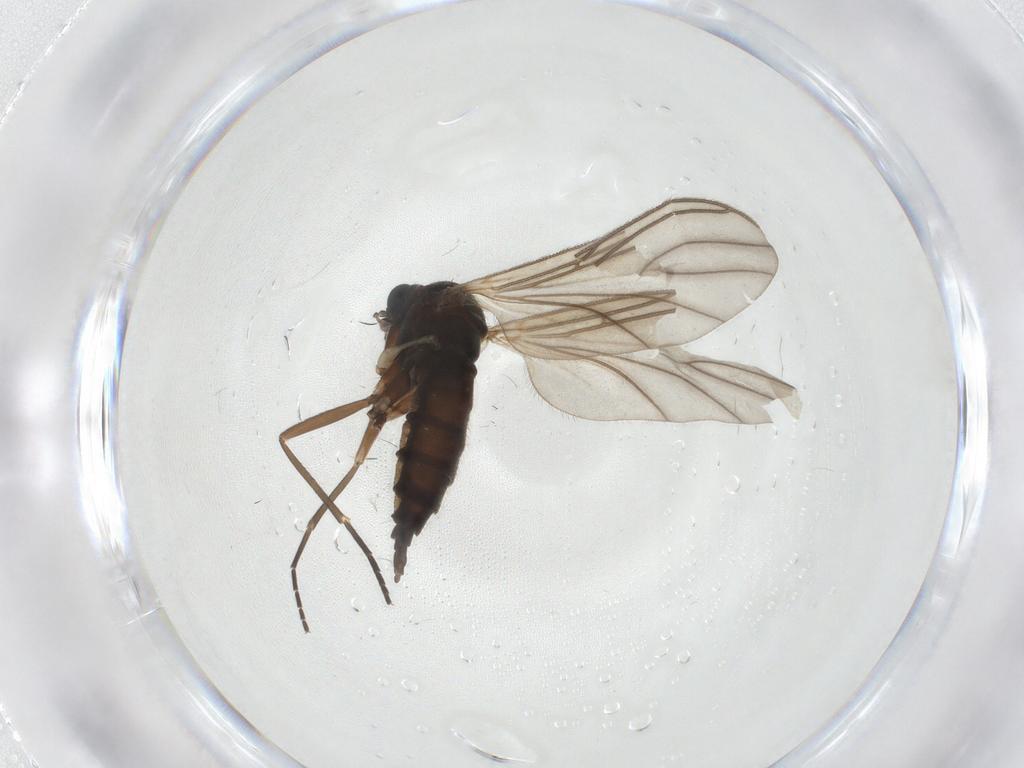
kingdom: Animalia
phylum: Arthropoda
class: Insecta
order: Diptera
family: Sciaridae
